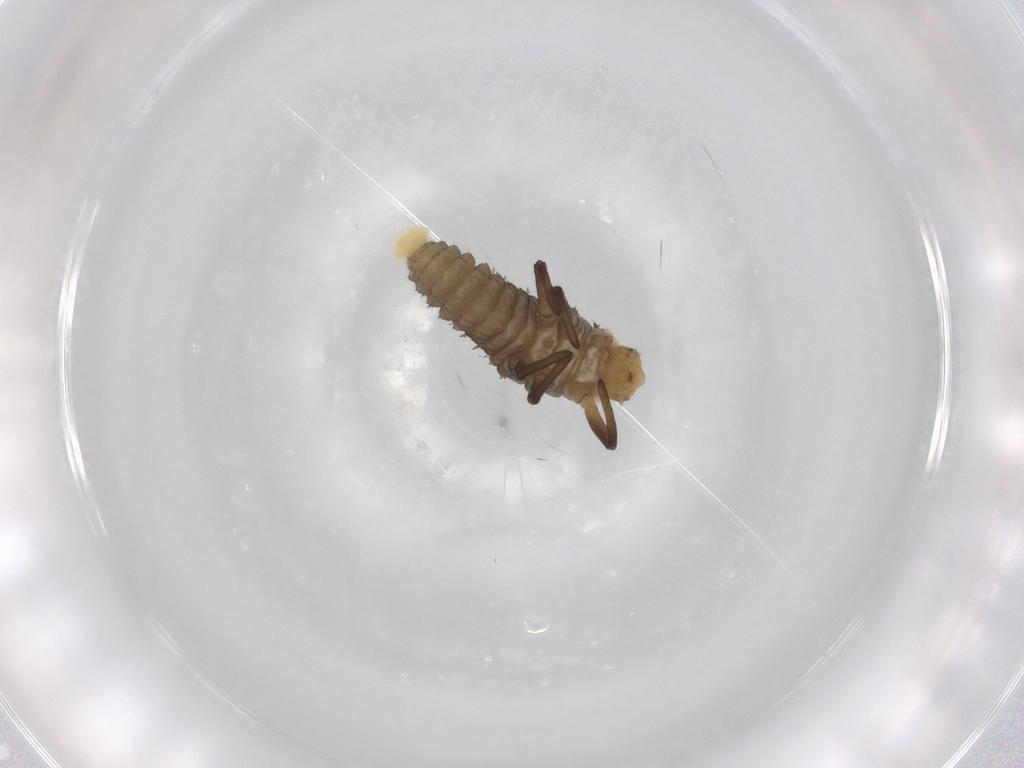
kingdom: Animalia
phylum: Arthropoda
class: Insecta
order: Coleoptera
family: Coccinellidae
